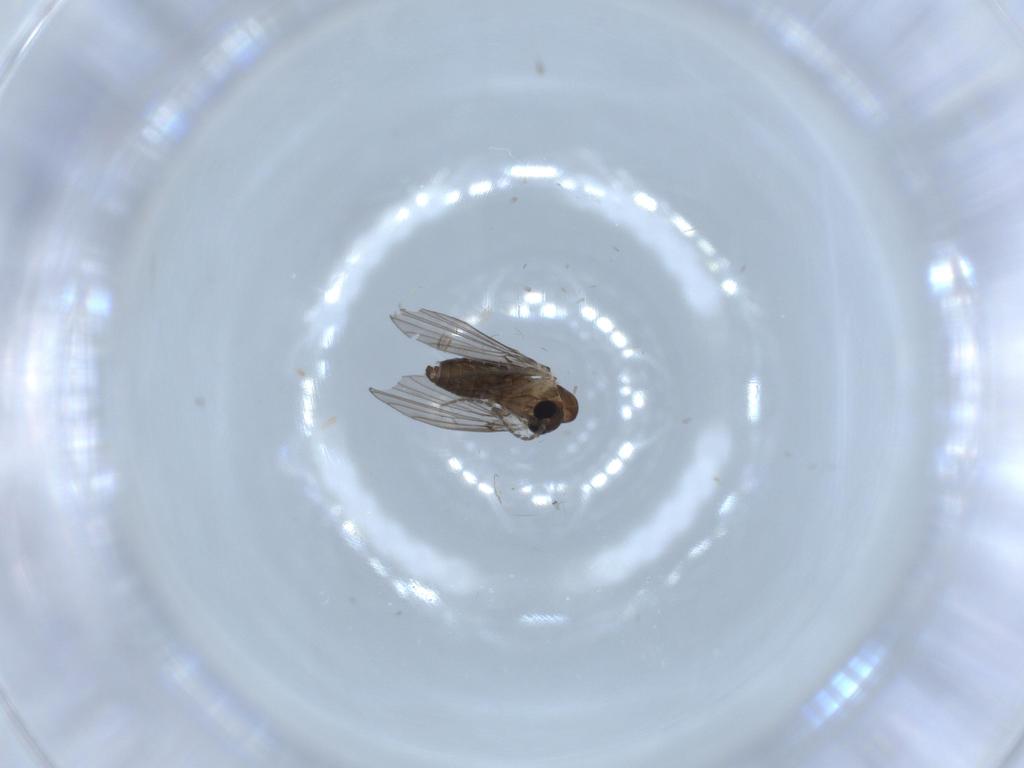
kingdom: Animalia
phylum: Arthropoda
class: Insecta
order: Diptera
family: Psychodidae
